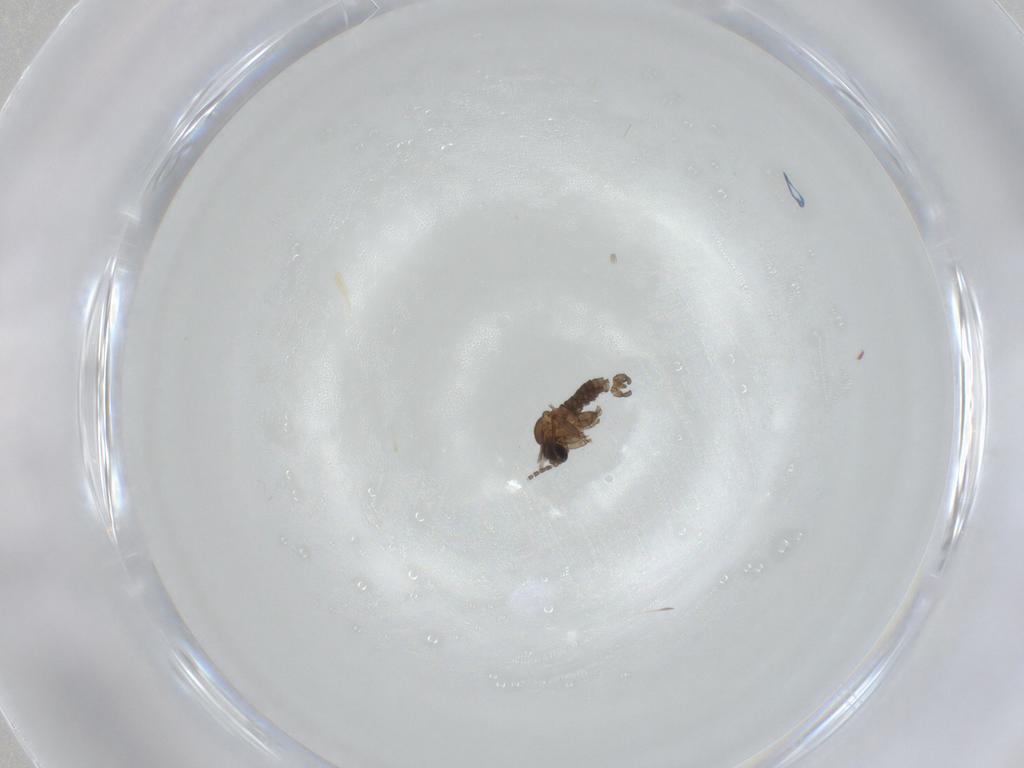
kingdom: Animalia
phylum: Arthropoda
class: Insecta
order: Diptera
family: Sciaridae
